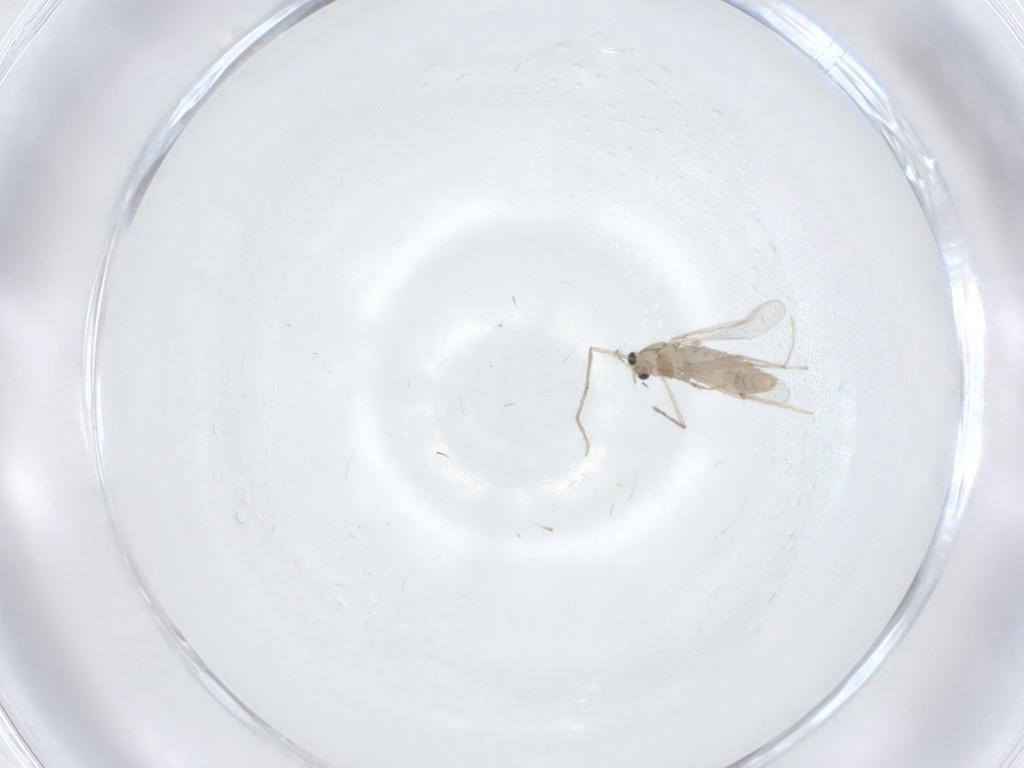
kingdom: Animalia
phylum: Arthropoda
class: Insecta
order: Diptera
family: Chironomidae
